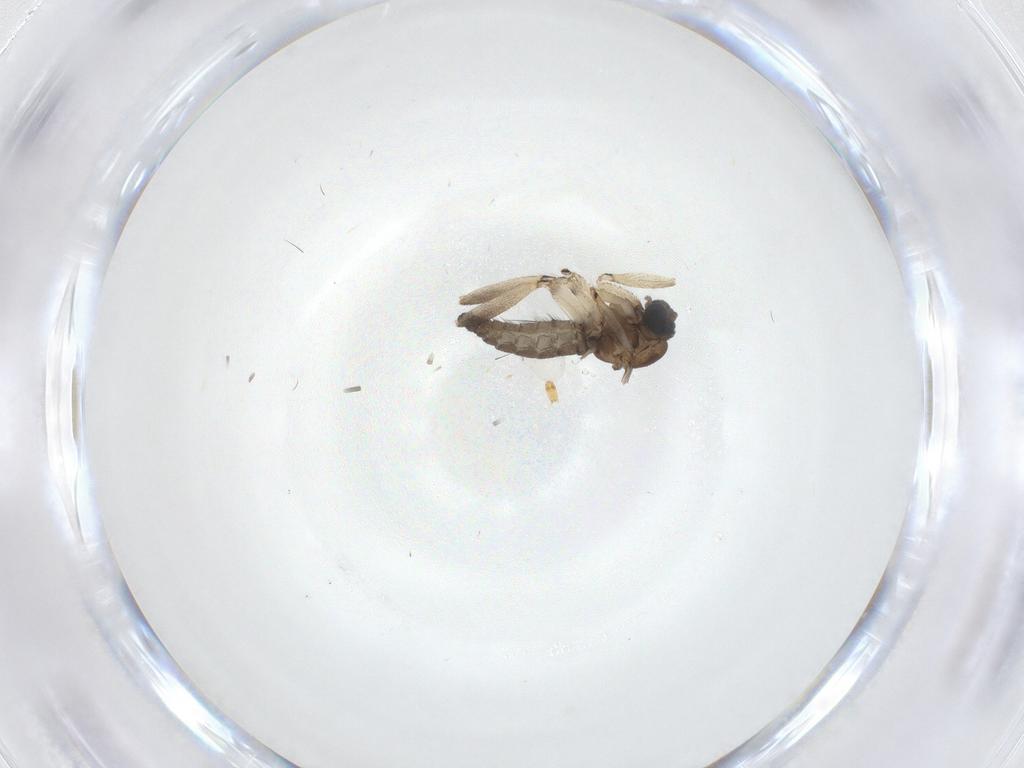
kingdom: Animalia
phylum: Arthropoda
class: Insecta
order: Diptera
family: Sciaridae
